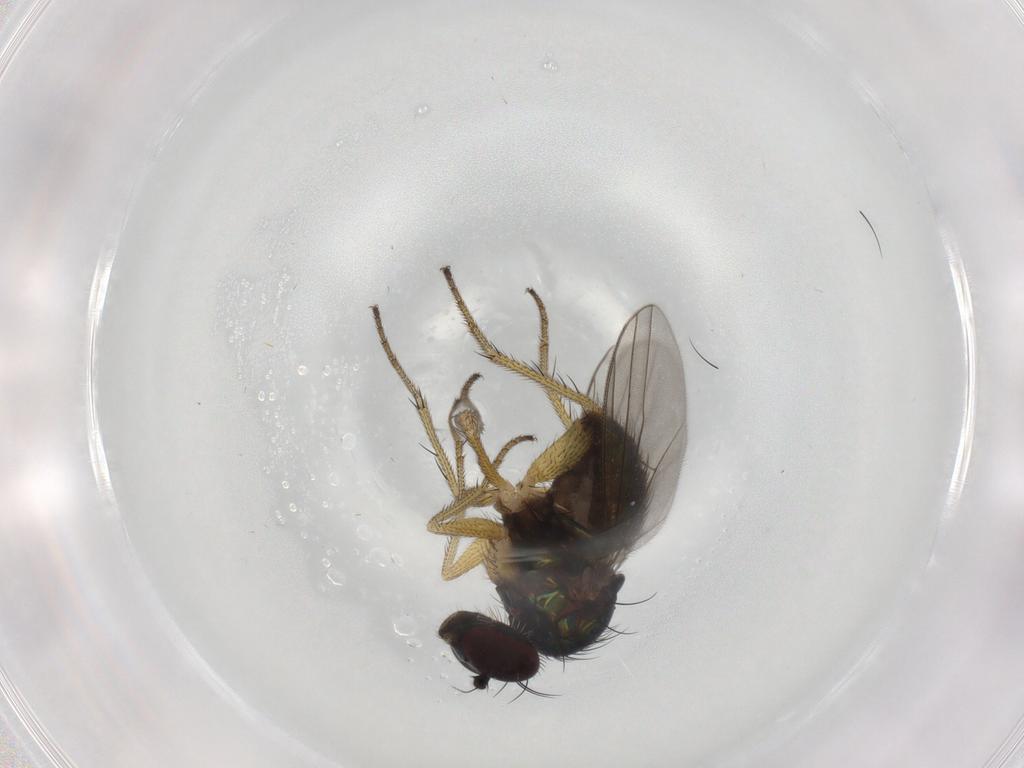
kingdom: Animalia
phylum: Arthropoda
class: Insecta
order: Diptera
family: Dolichopodidae
